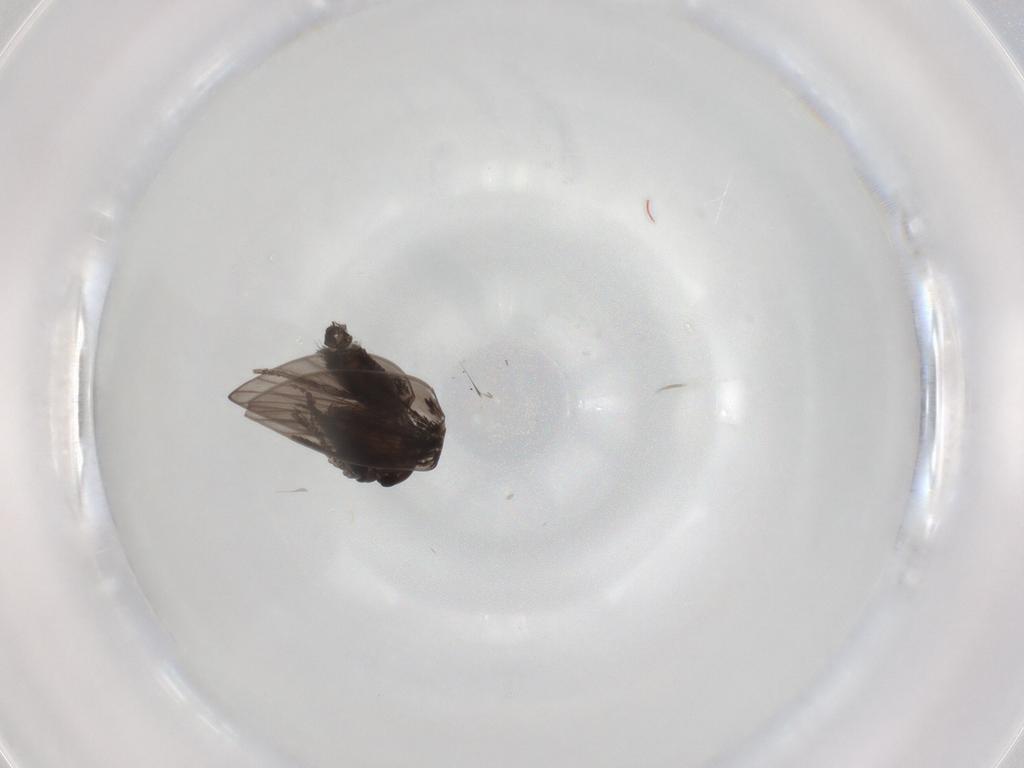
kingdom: Animalia
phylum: Arthropoda
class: Insecta
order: Diptera
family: Sciaridae
